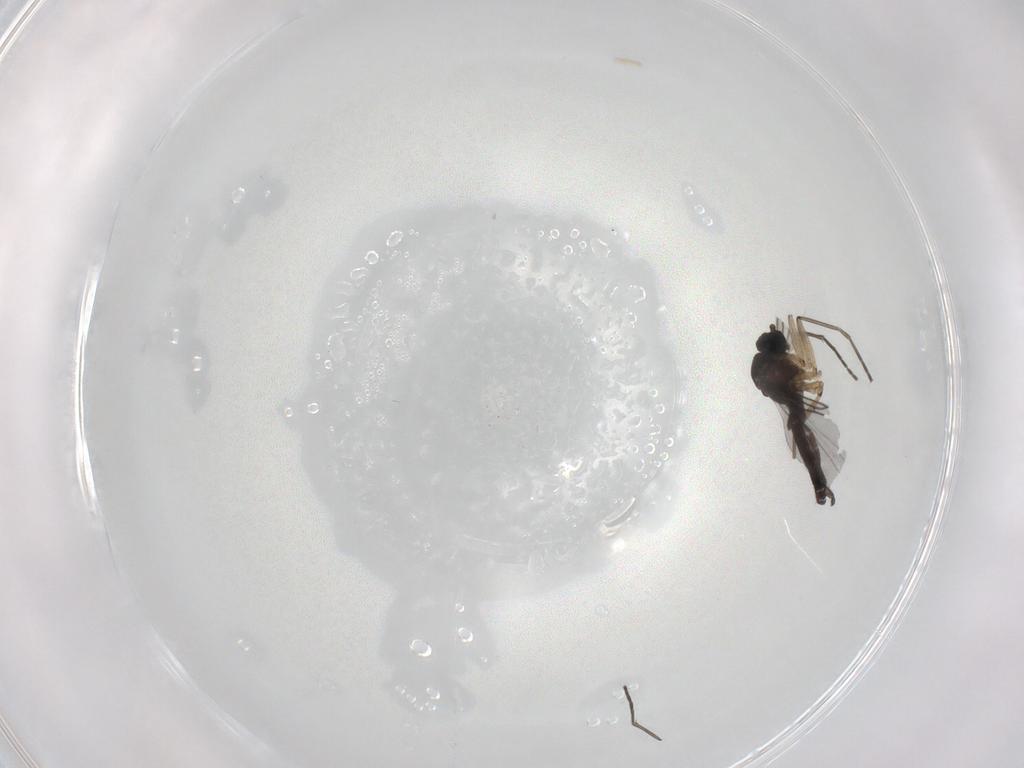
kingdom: Animalia
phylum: Arthropoda
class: Insecta
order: Diptera
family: Sciaridae
